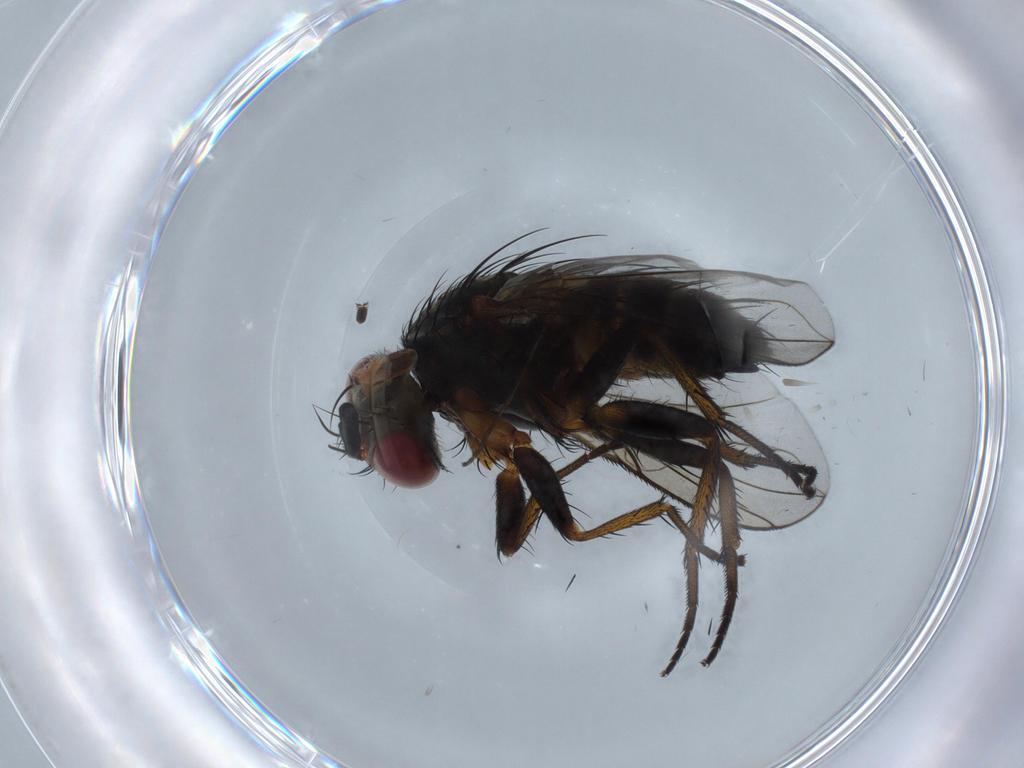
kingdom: Animalia
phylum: Arthropoda
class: Insecta
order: Diptera
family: Tachinidae
